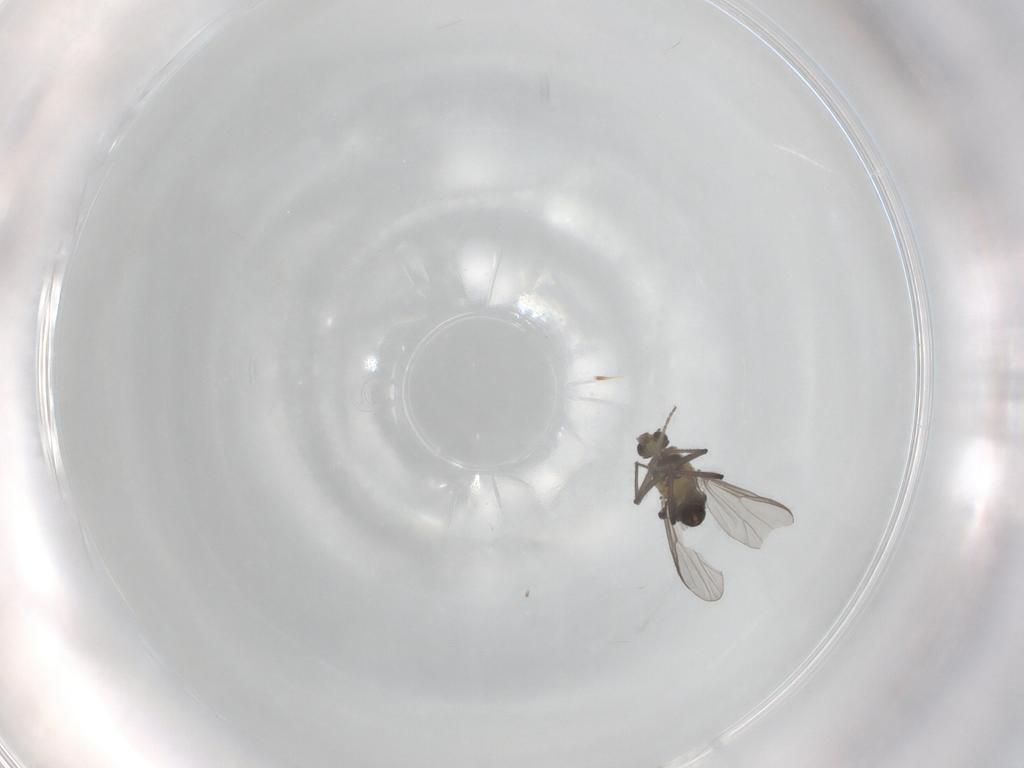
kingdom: Animalia
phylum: Arthropoda
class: Insecta
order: Diptera
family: Chironomidae
